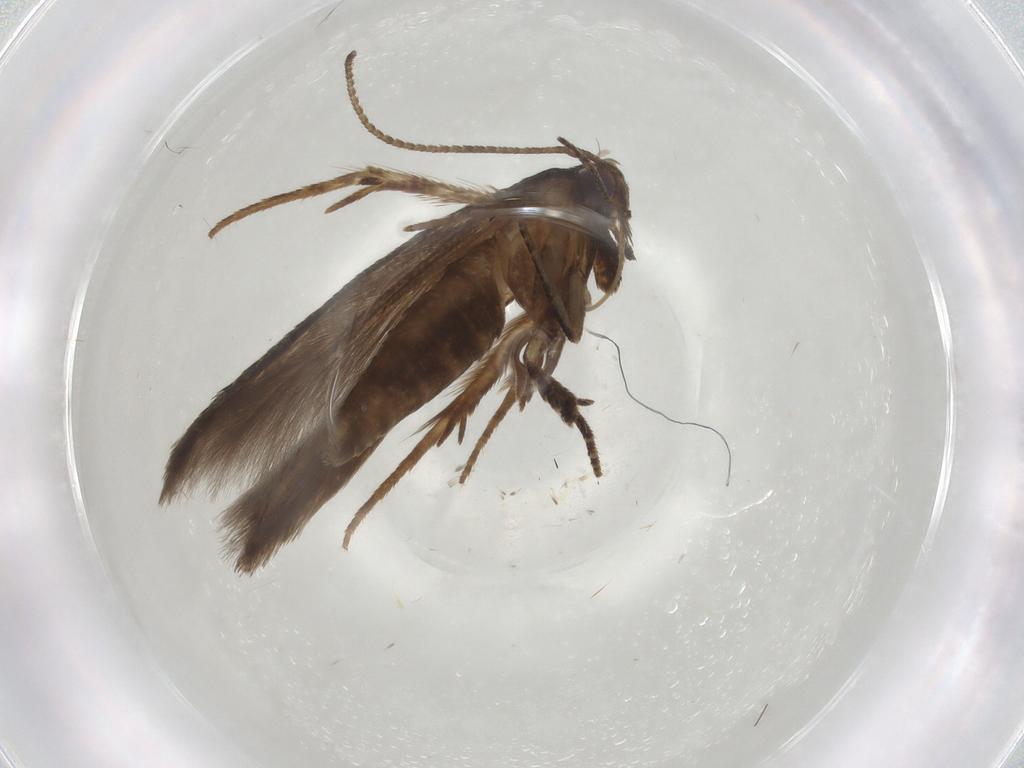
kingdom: Animalia
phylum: Arthropoda
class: Insecta
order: Lepidoptera
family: Cosmopterigidae
